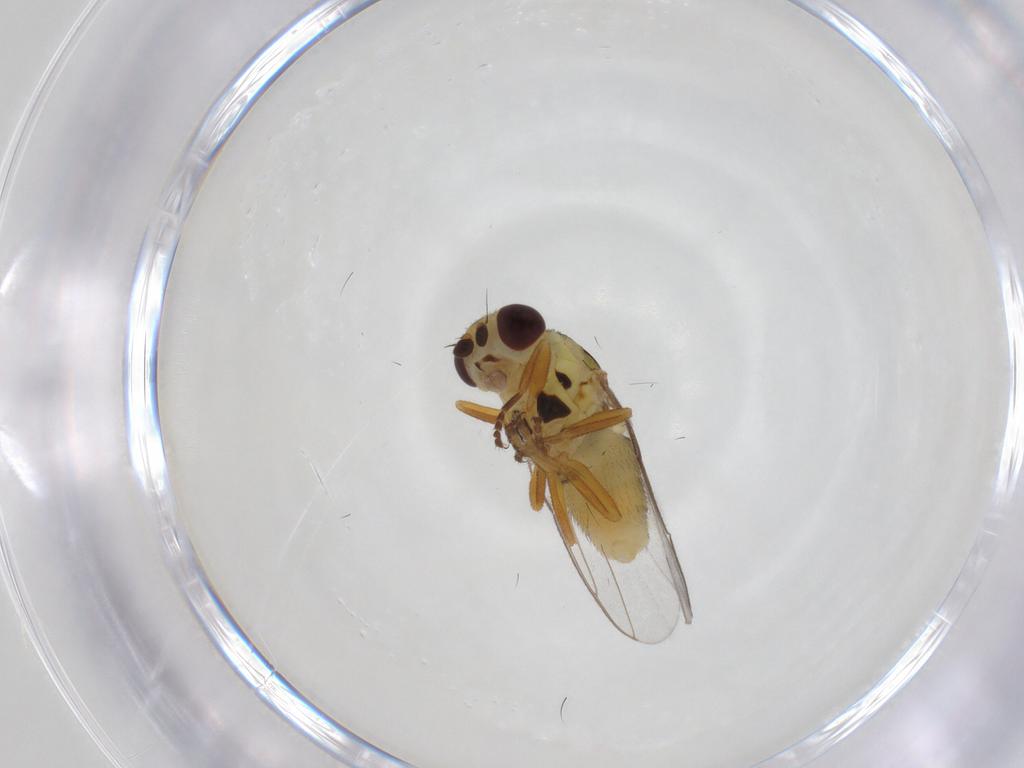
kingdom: Animalia
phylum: Arthropoda
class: Insecta
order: Diptera
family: Chloropidae
